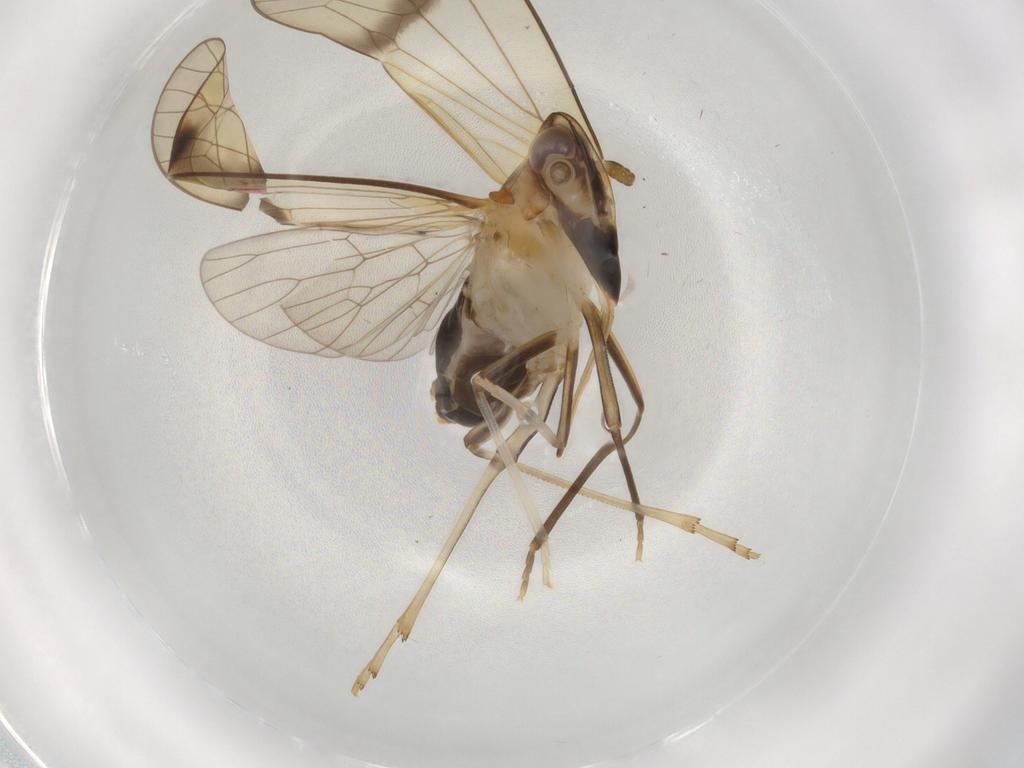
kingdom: Animalia
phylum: Arthropoda
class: Insecta
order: Hemiptera
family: Kinnaridae
